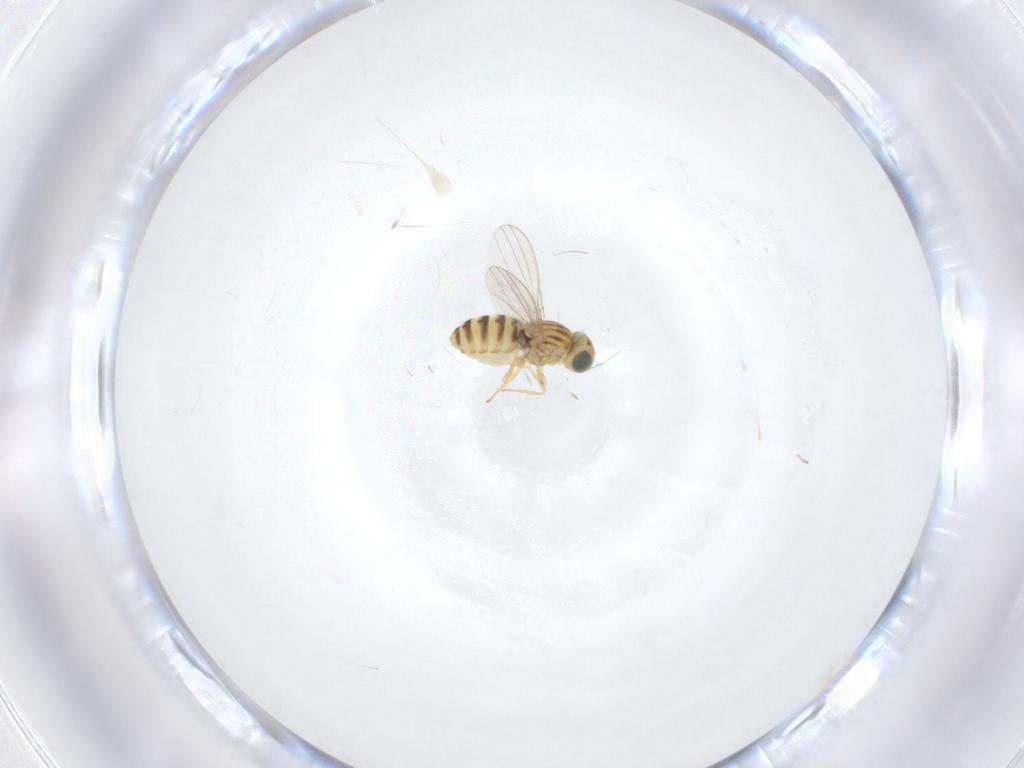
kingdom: Animalia
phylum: Arthropoda
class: Insecta
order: Diptera
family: Chyromyidae
